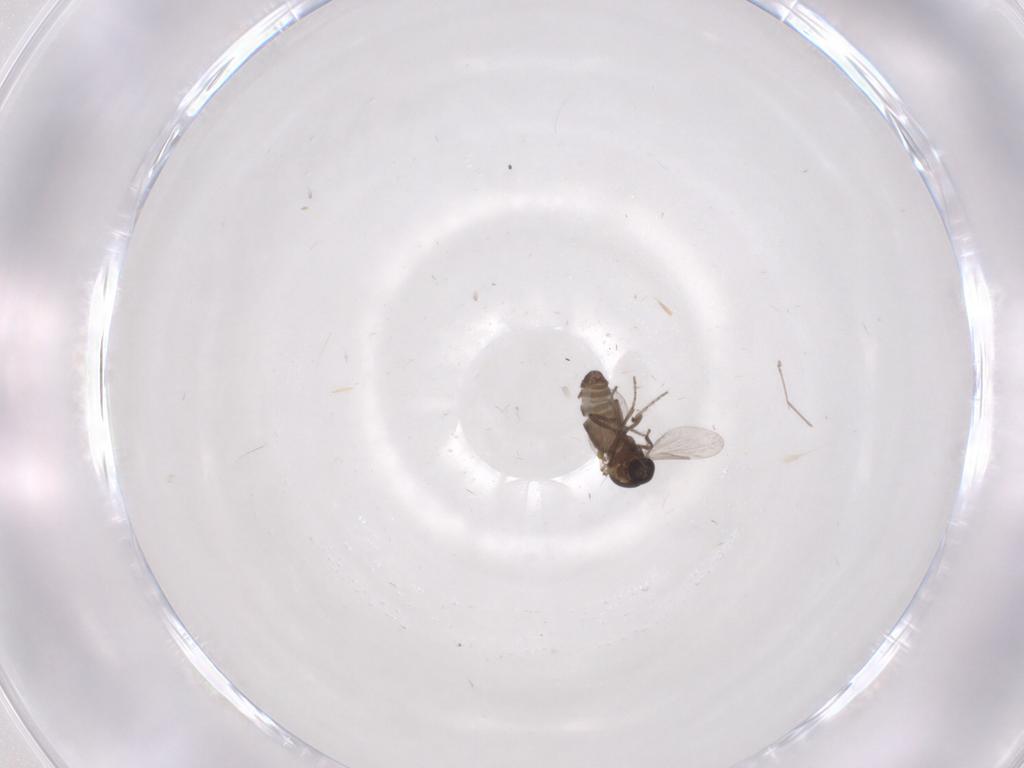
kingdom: Animalia
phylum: Arthropoda
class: Insecta
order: Diptera
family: Ceratopogonidae
